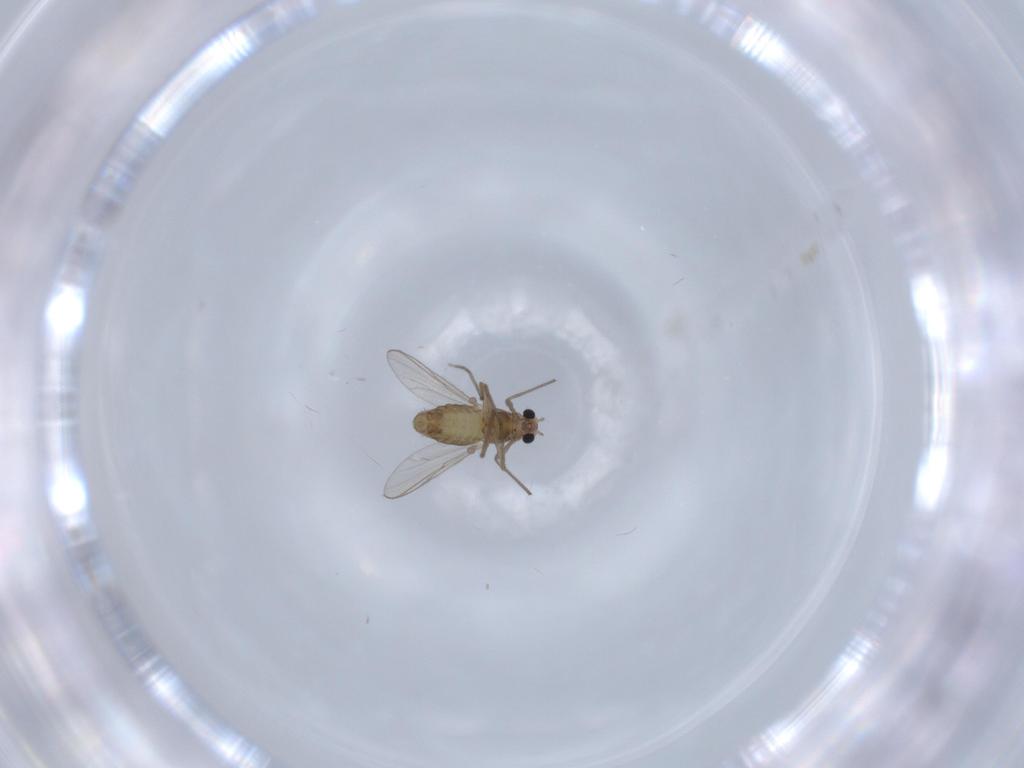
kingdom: Animalia
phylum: Arthropoda
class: Insecta
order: Diptera
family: Chironomidae
